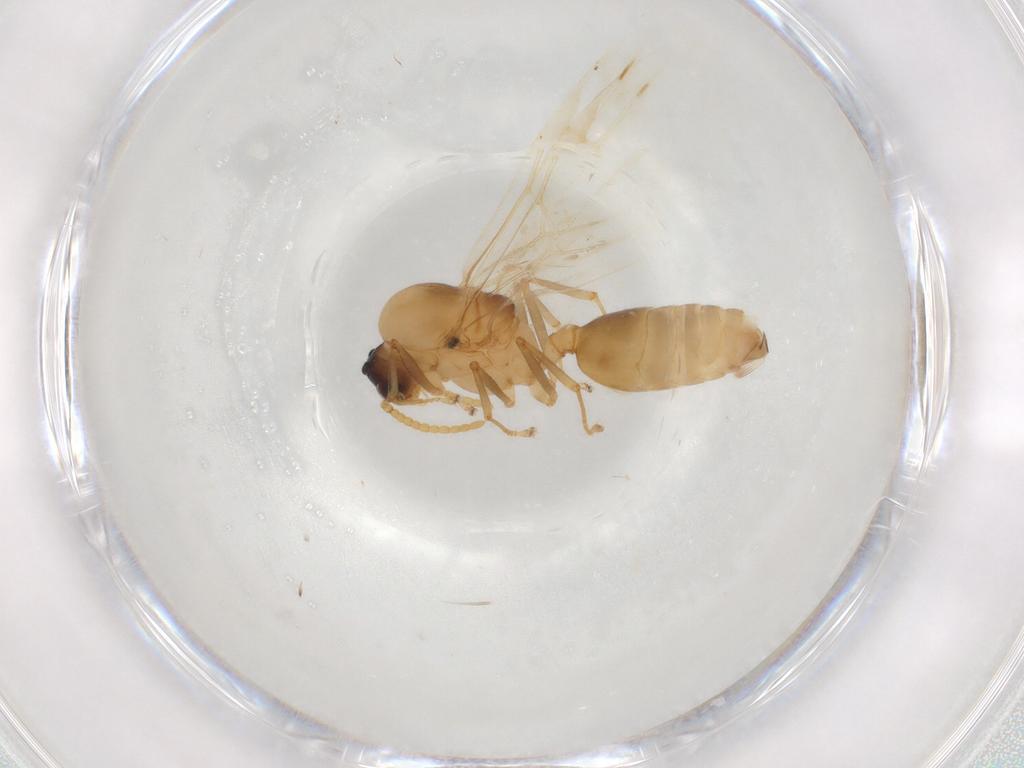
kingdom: Animalia
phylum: Arthropoda
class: Insecta
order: Hymenoptera
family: Formicidae
